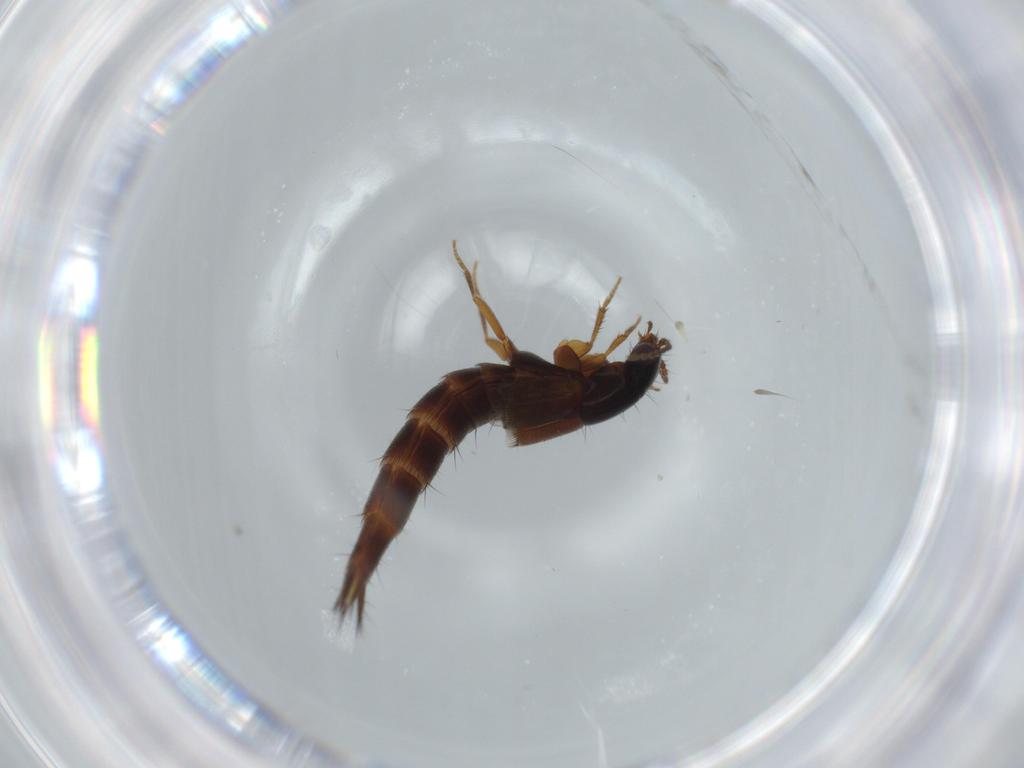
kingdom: Animalia
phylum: Arthropoda
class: Insecta
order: Coleoptera
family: Staphylinidae
